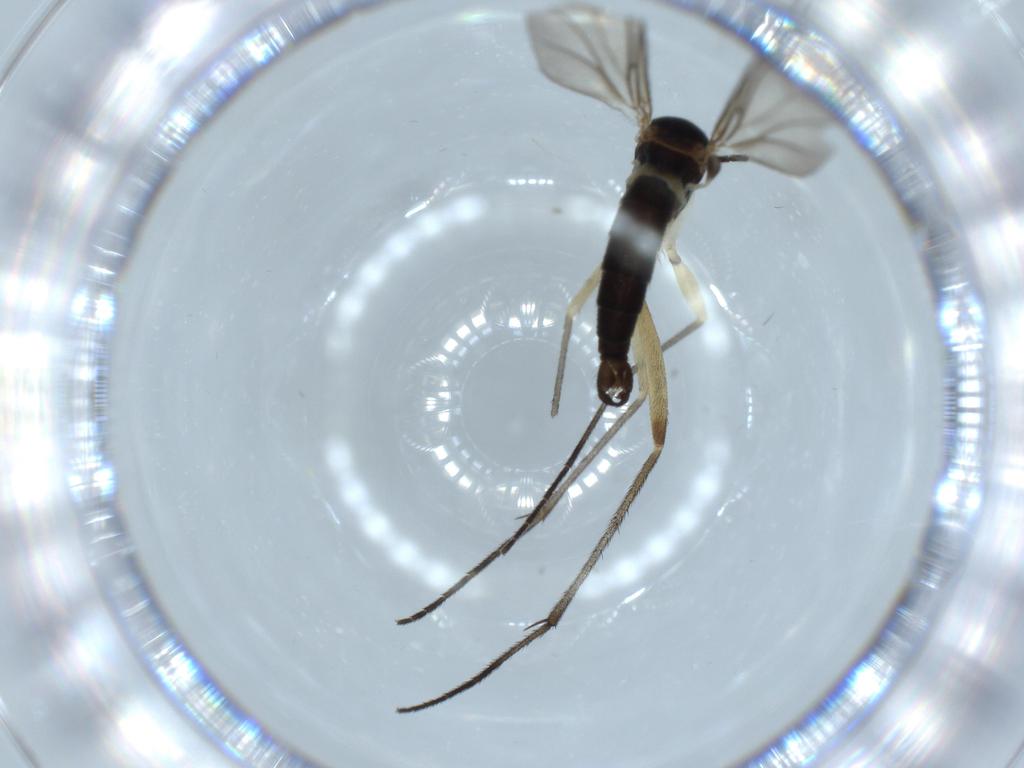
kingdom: Animalia
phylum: Arthropoda
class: Insecta
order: Diptera
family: Sciaridae
